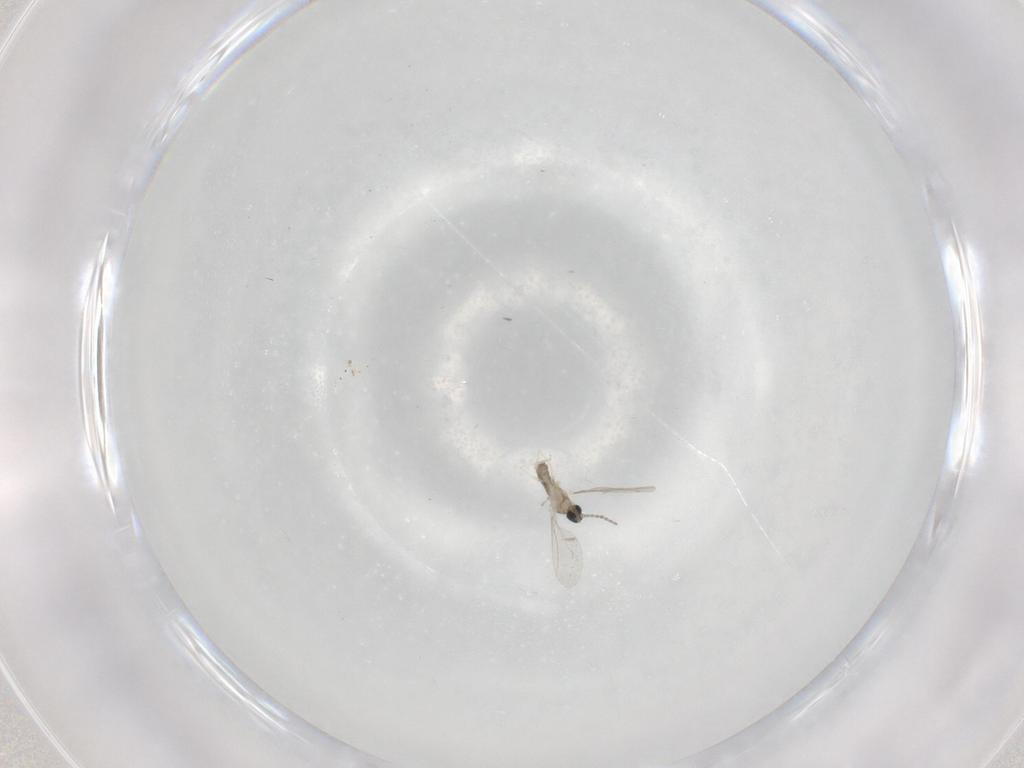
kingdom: Animalia
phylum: Arthropoda
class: Insecta
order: Diptera
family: Cecidomyiidae
